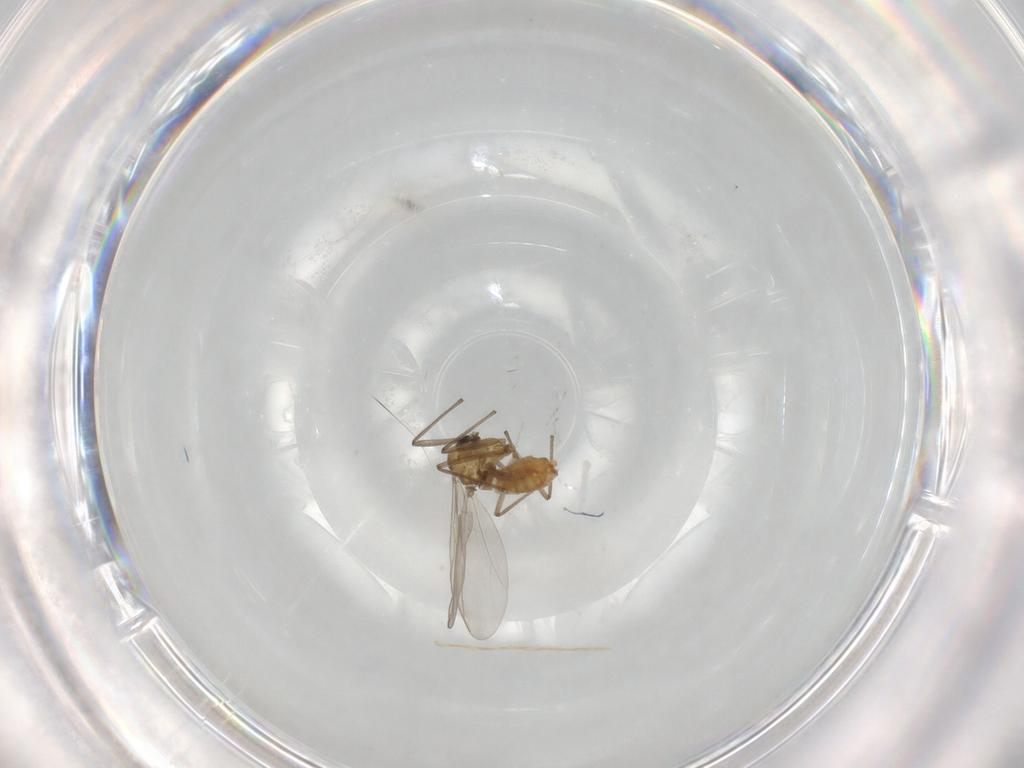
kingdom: Animalia
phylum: Arthropoda
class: Insecta
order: Diptera
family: Chironomidae
